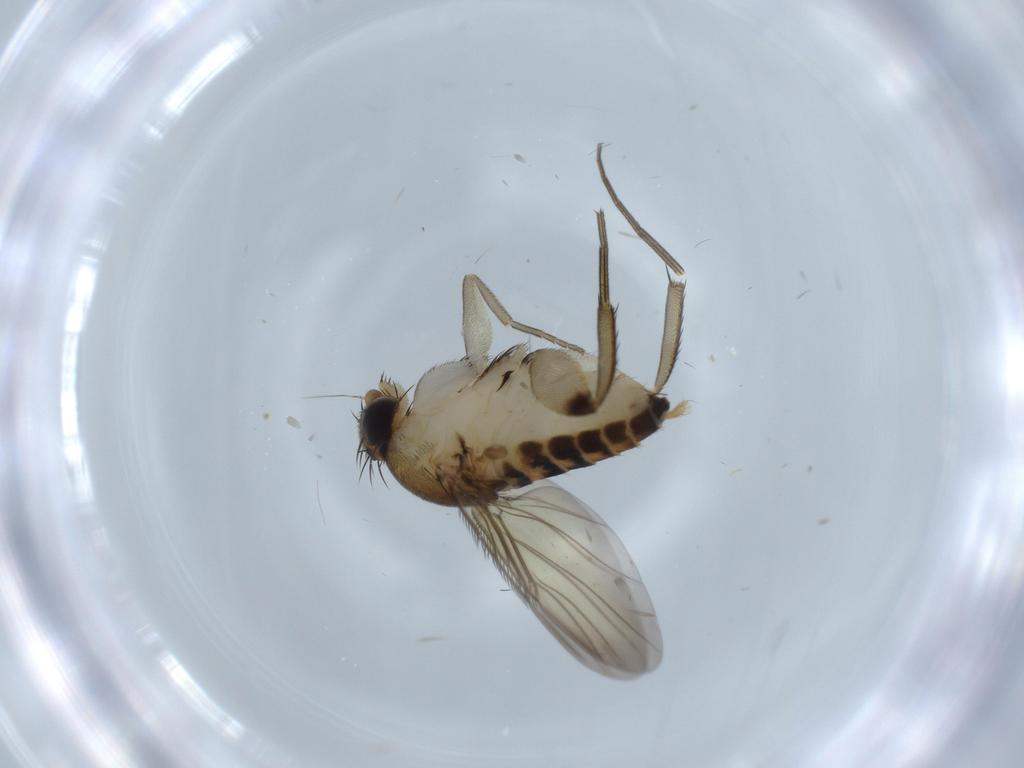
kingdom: Animalia
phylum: Arthropoda
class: Insecta
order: Diptera
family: Phoridae
